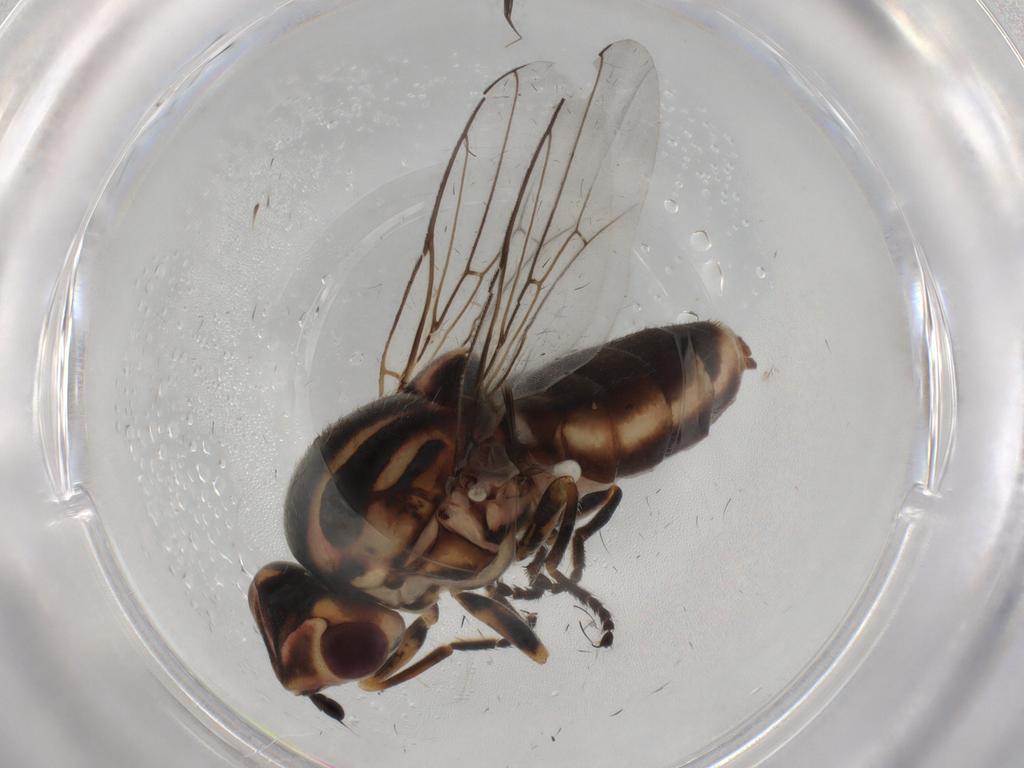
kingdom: Animalia
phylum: Arthropoda
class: Insecta
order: Diptera
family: Chloropidae
